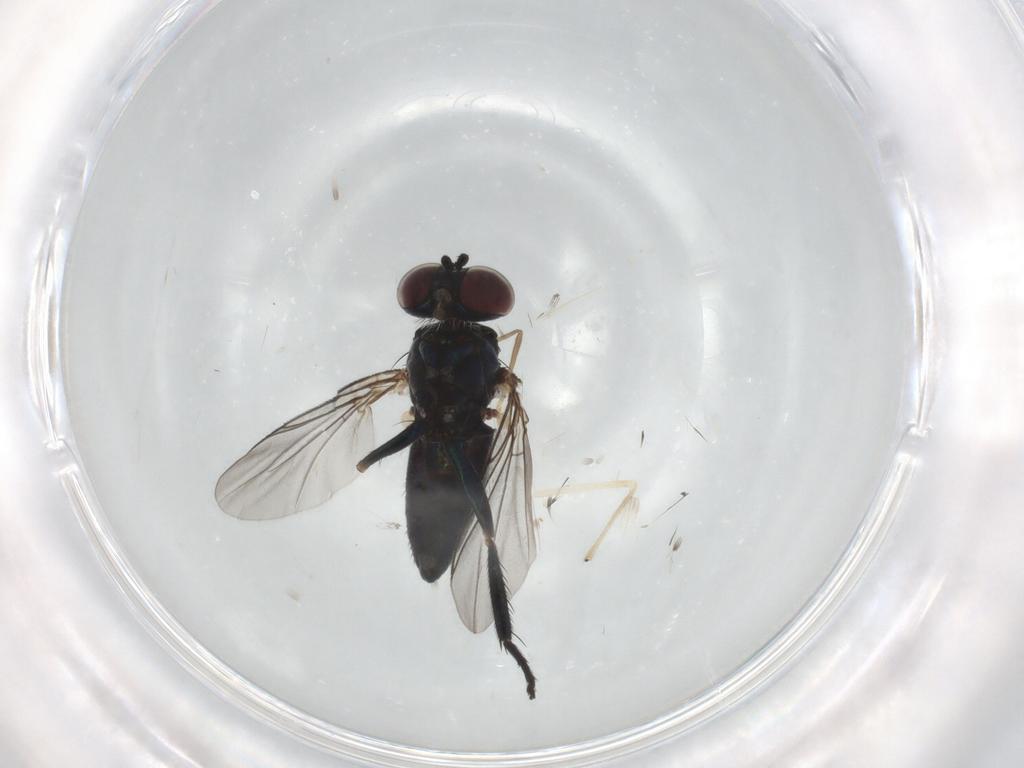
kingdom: Animalia
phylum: Arthropoda
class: Insecta
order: Diptera
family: Dolichopodidae
